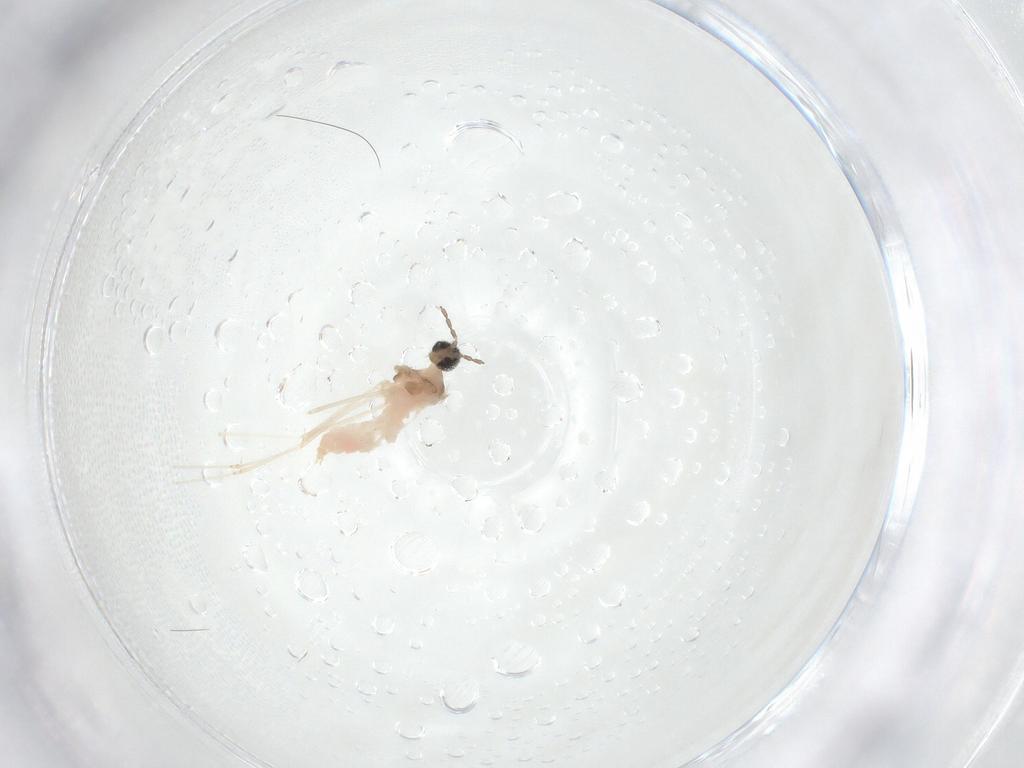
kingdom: Animalia
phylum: Arthropoda
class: Insecta
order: Diptera
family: Cecidomyiidae
